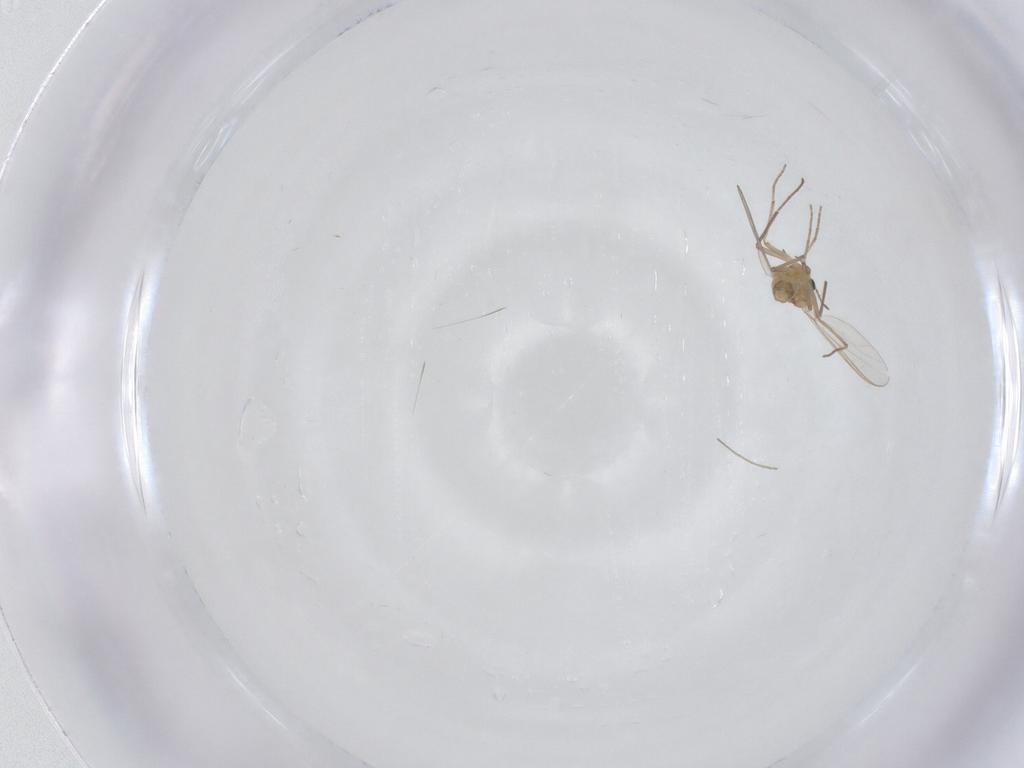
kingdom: Animalia
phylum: Arthropoda
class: Insecta
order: Diptera
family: Chironomidae
